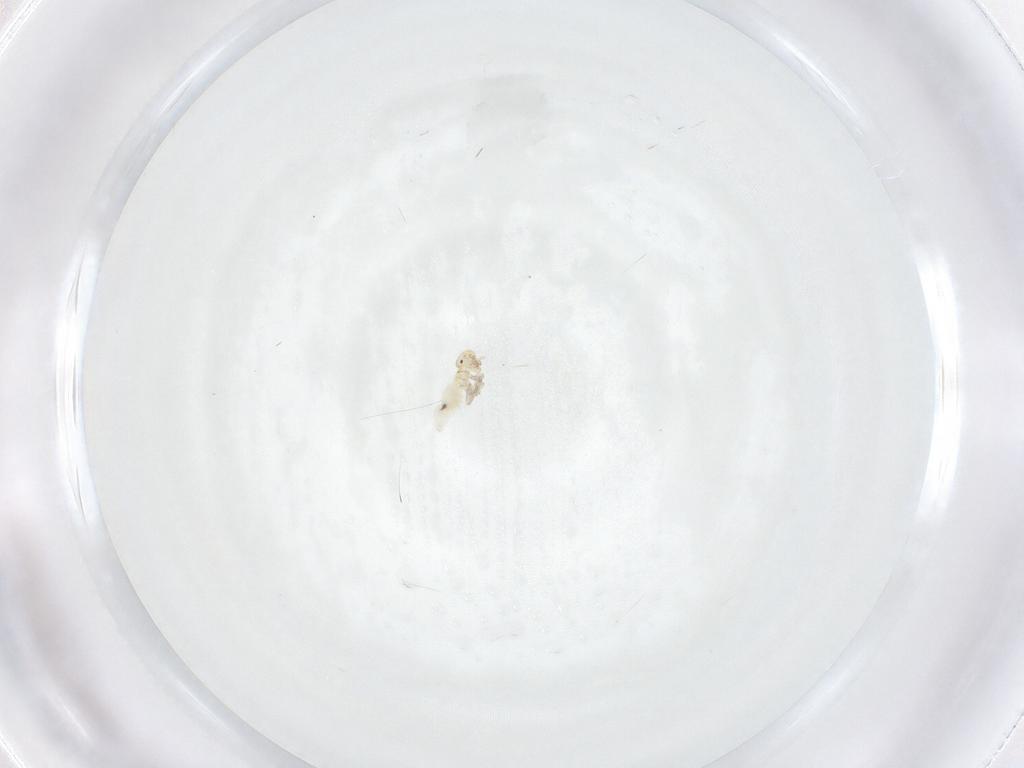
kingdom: Animalia
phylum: Arthropoda
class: Insecta
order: Psocodea
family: Caeciliusidae
